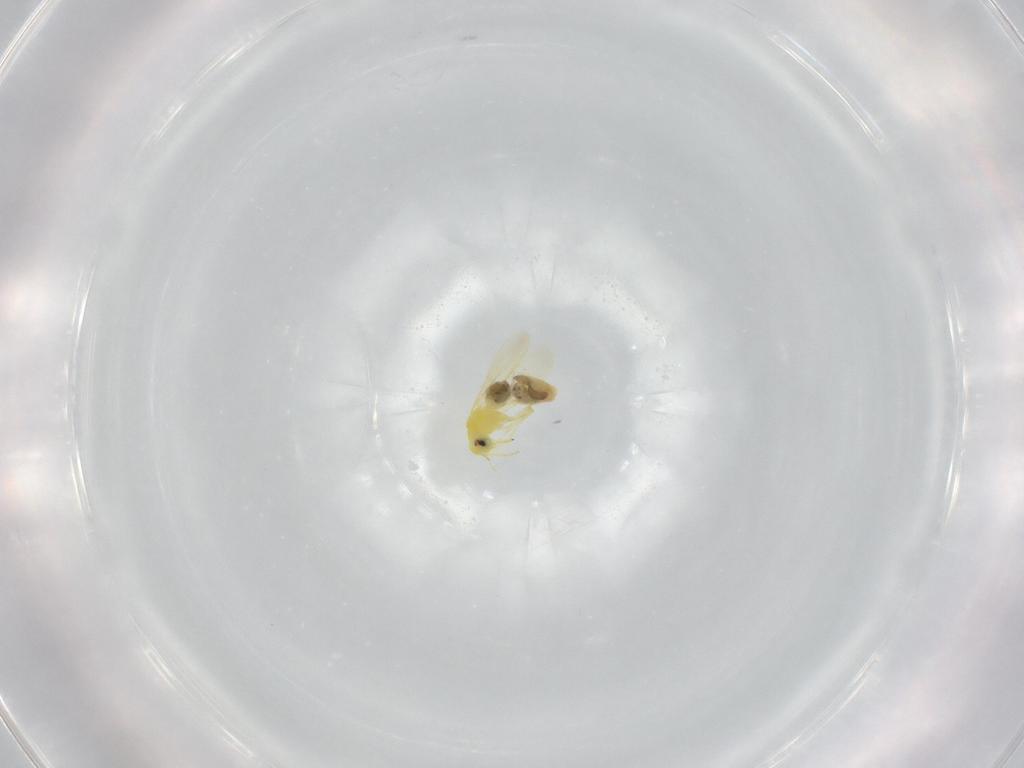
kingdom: Animalia
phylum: Arthropoda
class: Insecta
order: Hemiptera
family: Aleyrodidae
